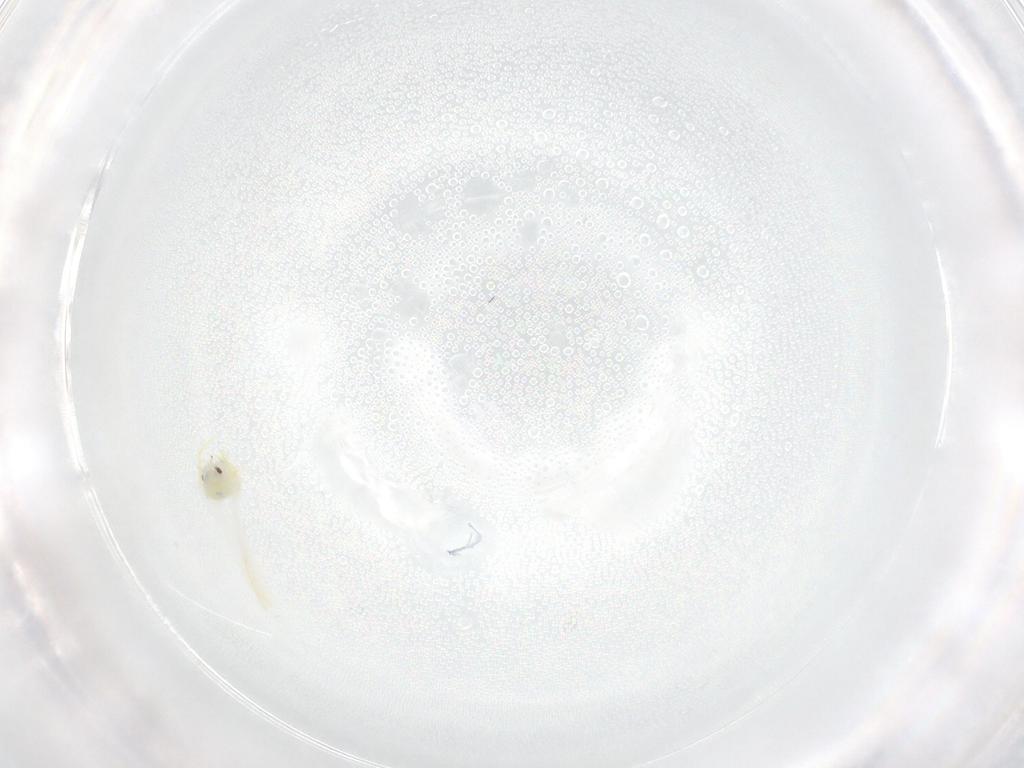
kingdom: Animalia
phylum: Arthropoda
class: Insecta
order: Hemiptera
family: Aleyrodidae
